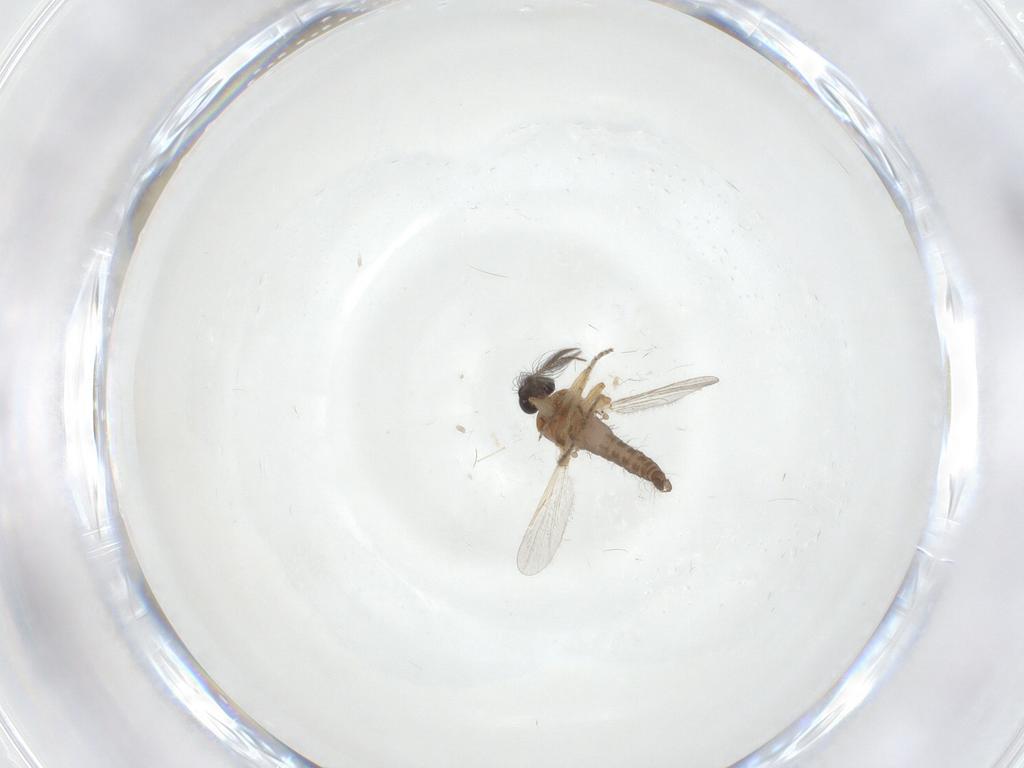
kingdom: Animalia
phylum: Arthropoda
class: Insecta
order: Diptera
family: Ceratopogonidae
